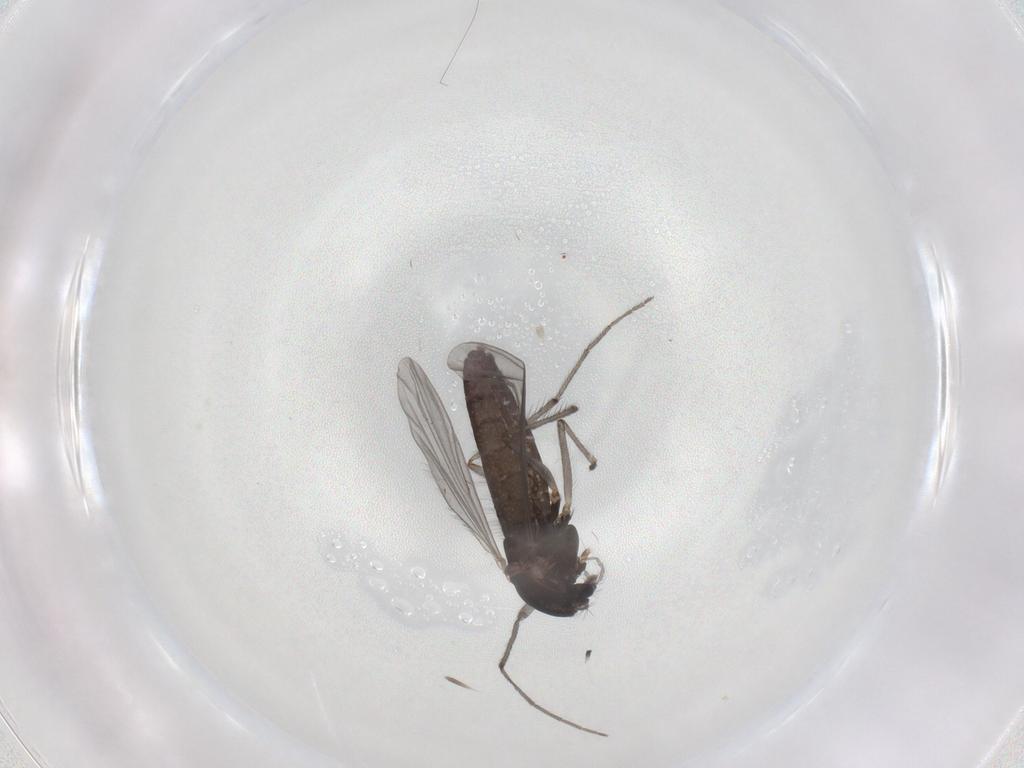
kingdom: Animalia
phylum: Arthropoda
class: Insecta
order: Diptera
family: Chironomidae
